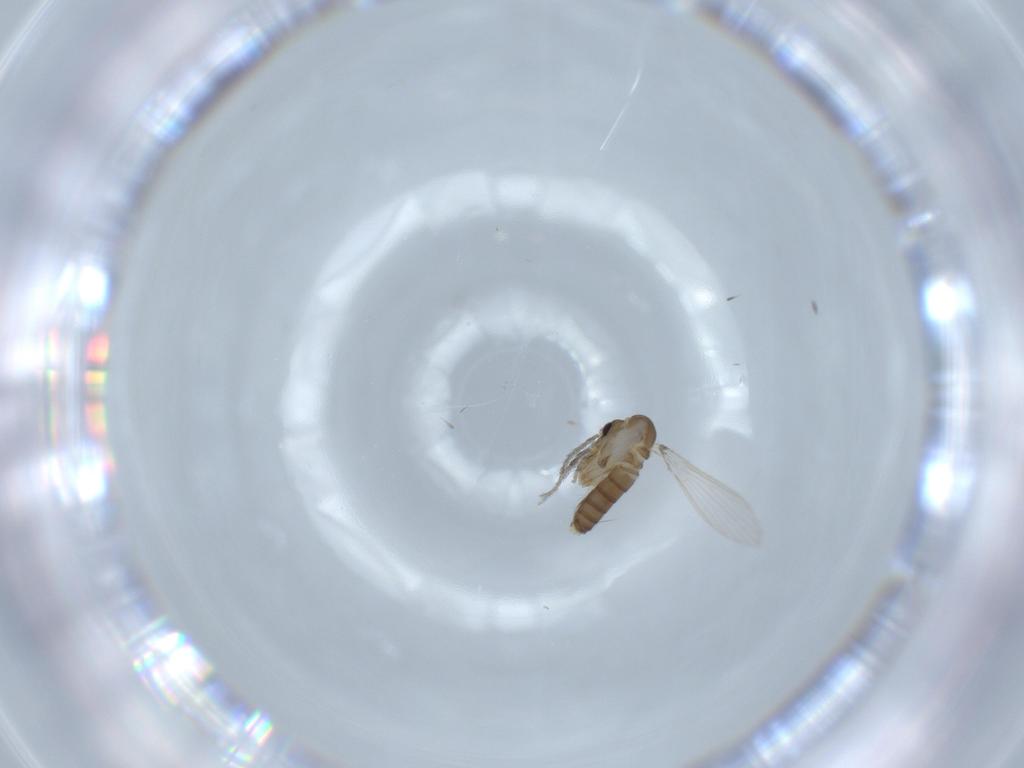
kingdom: Animalia
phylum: Arthropoda
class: Insecta
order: Diptera
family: Psychodidae
